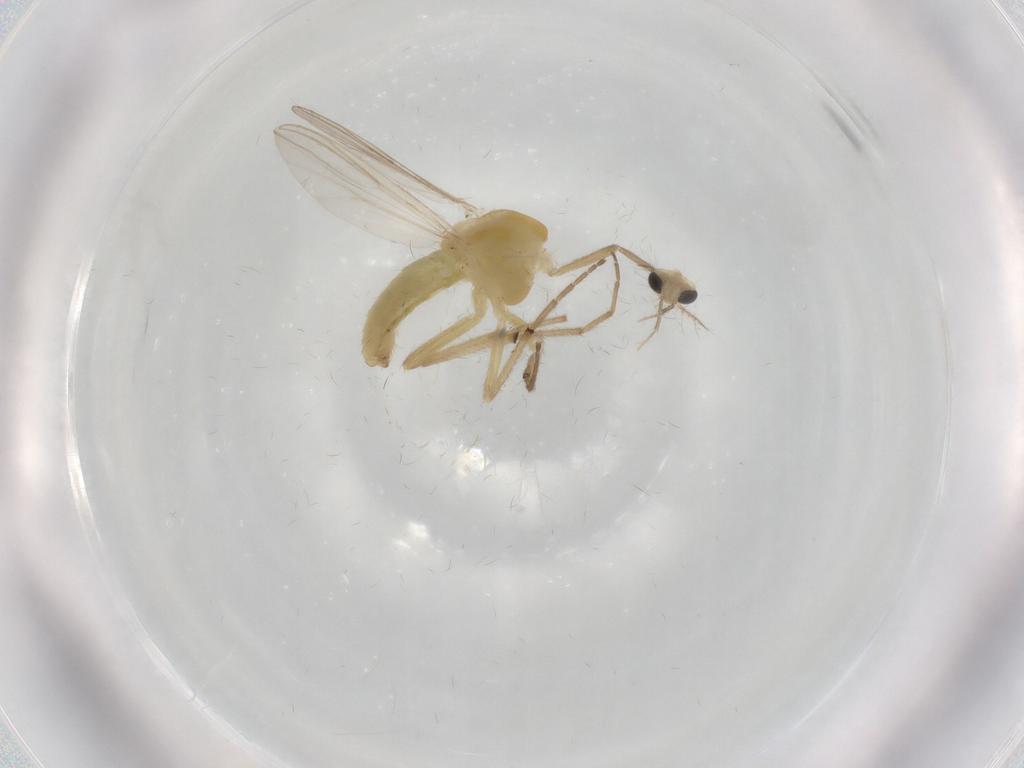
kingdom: Animalia
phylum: Arthropoda
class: Insecta
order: Diptera
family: Chironomidae
